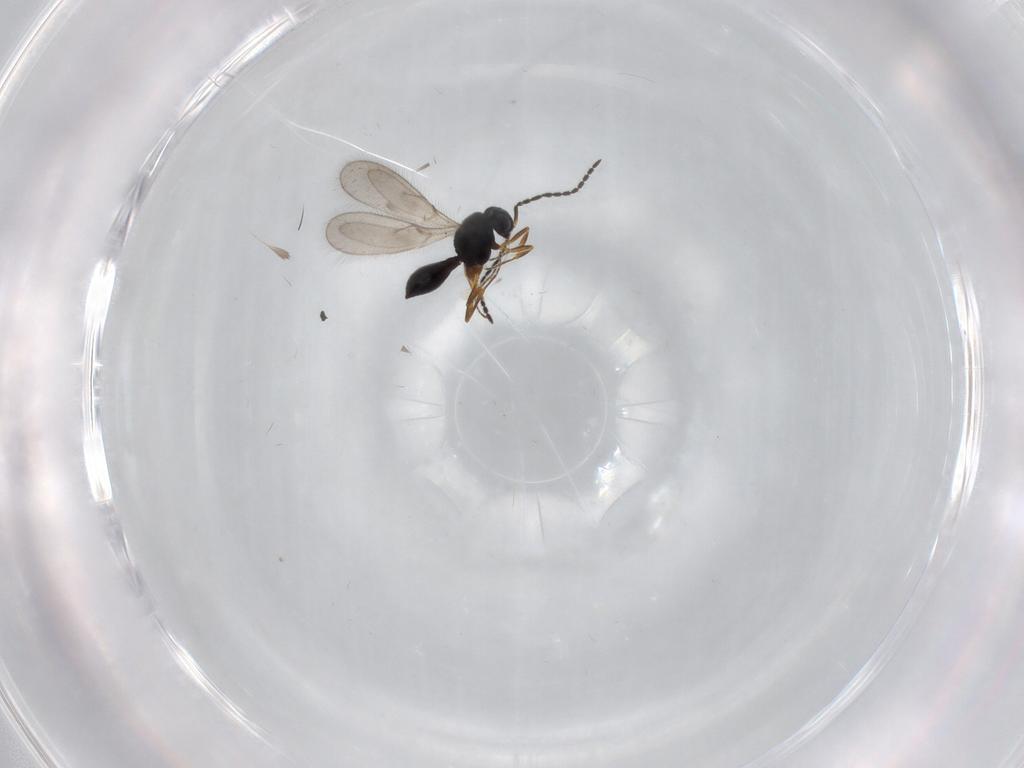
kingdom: Animalia
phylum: Arthropoda
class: Insecta
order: Hymenoptera
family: Scelionidae
